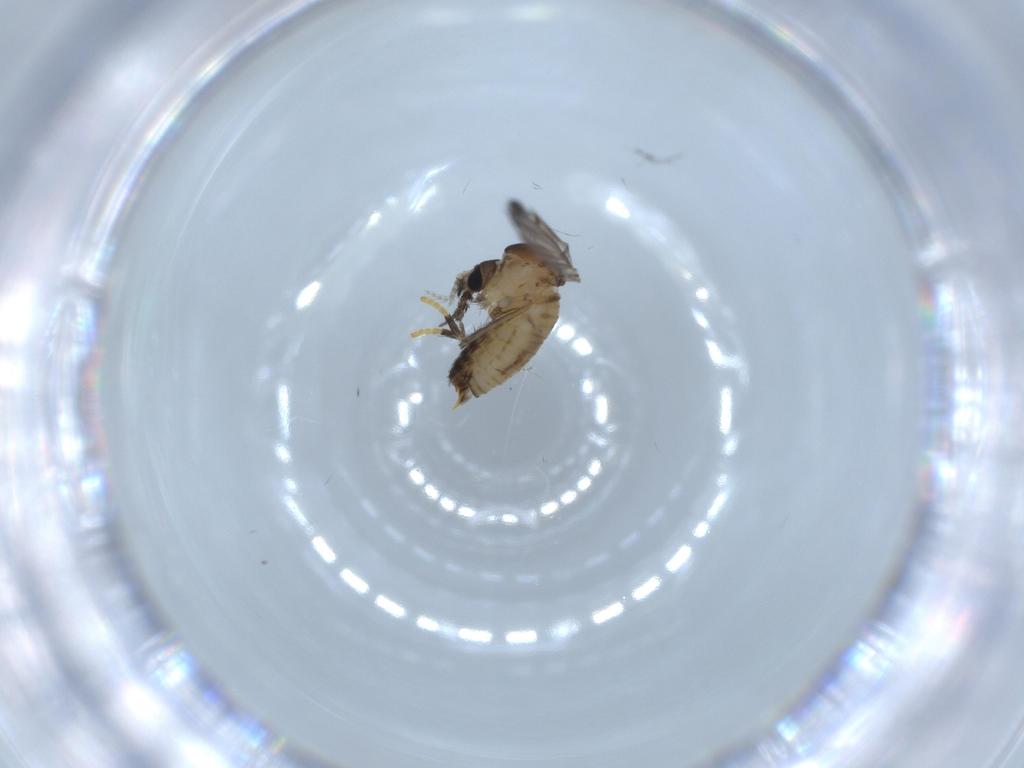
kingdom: Animalia
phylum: Arthropoda
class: Insecta
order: Diptera
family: Psychodidae
